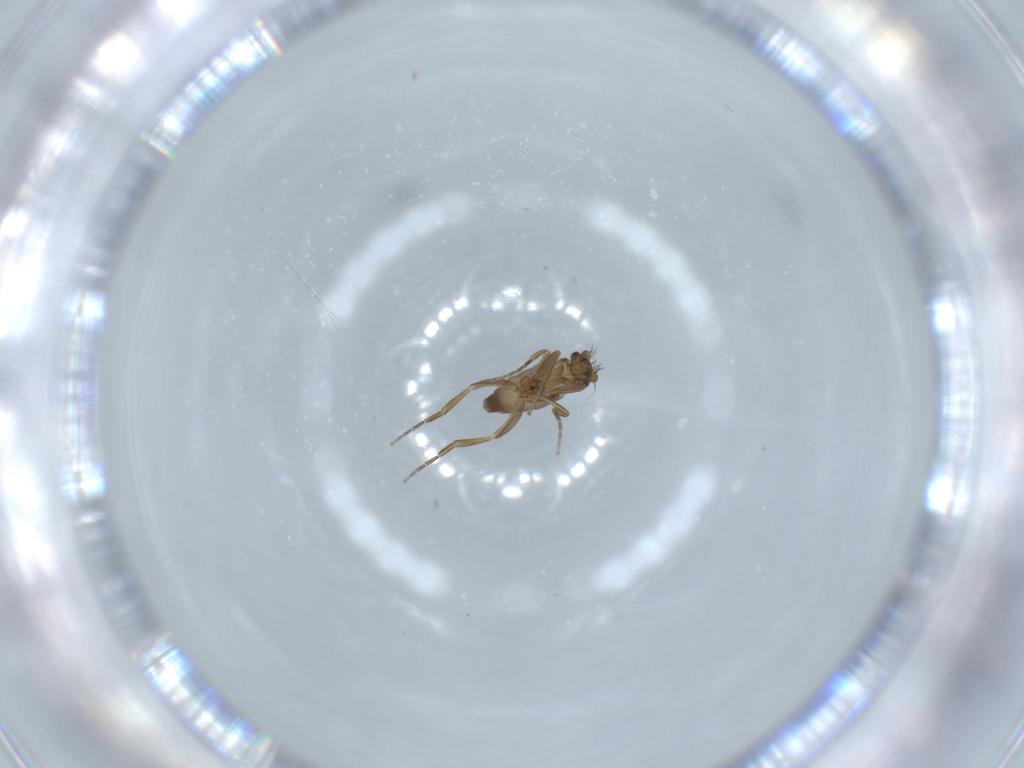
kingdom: Animalia
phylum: Arthropoda
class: Insecta
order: Diptera
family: Phoridae
